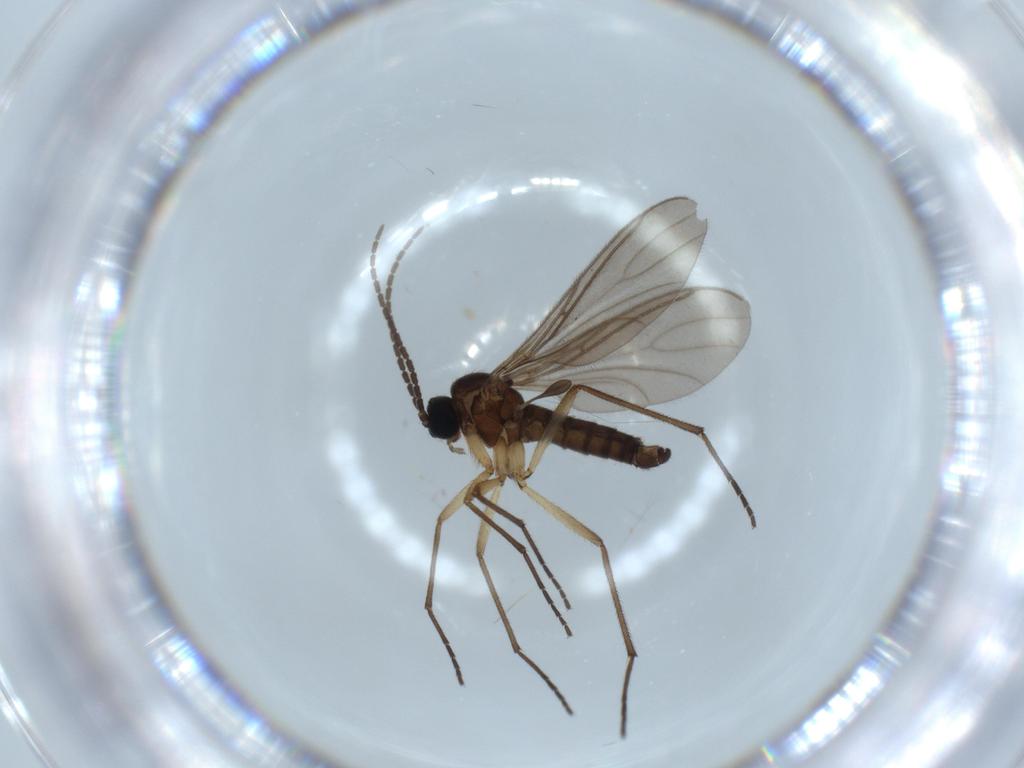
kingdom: Animalia
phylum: Arthropoda
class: Insecta
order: Diptera
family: Sciaridae
